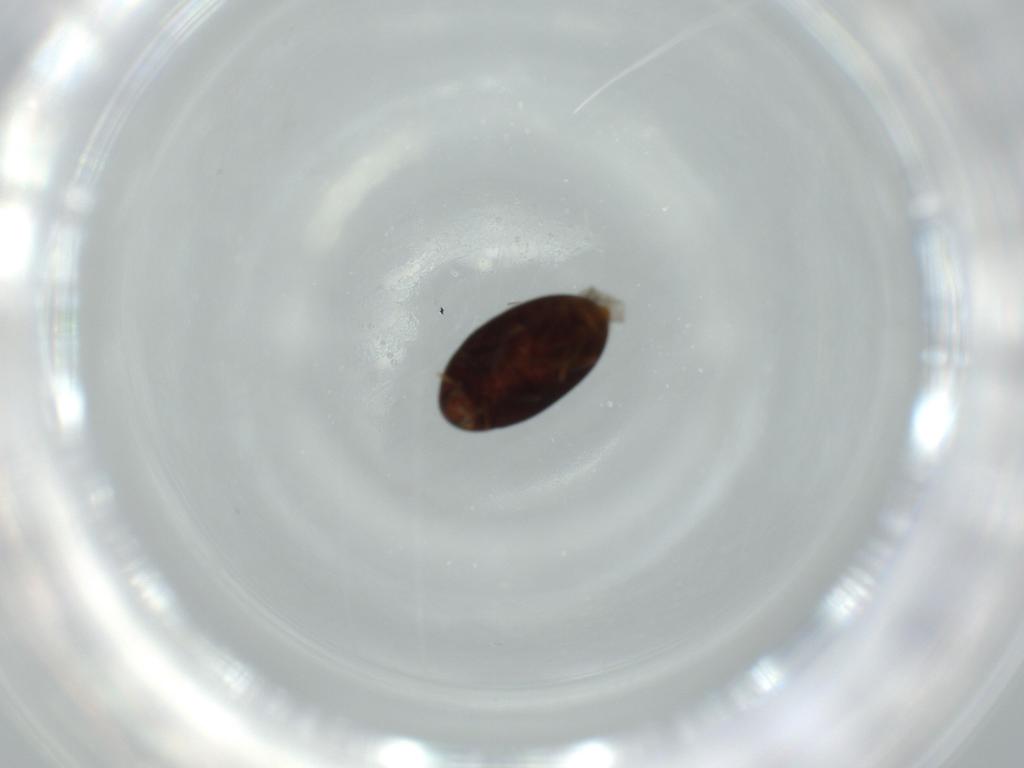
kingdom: Animalia
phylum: Arthropoda
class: Insecta
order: Coleoptera
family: Melandryidae
